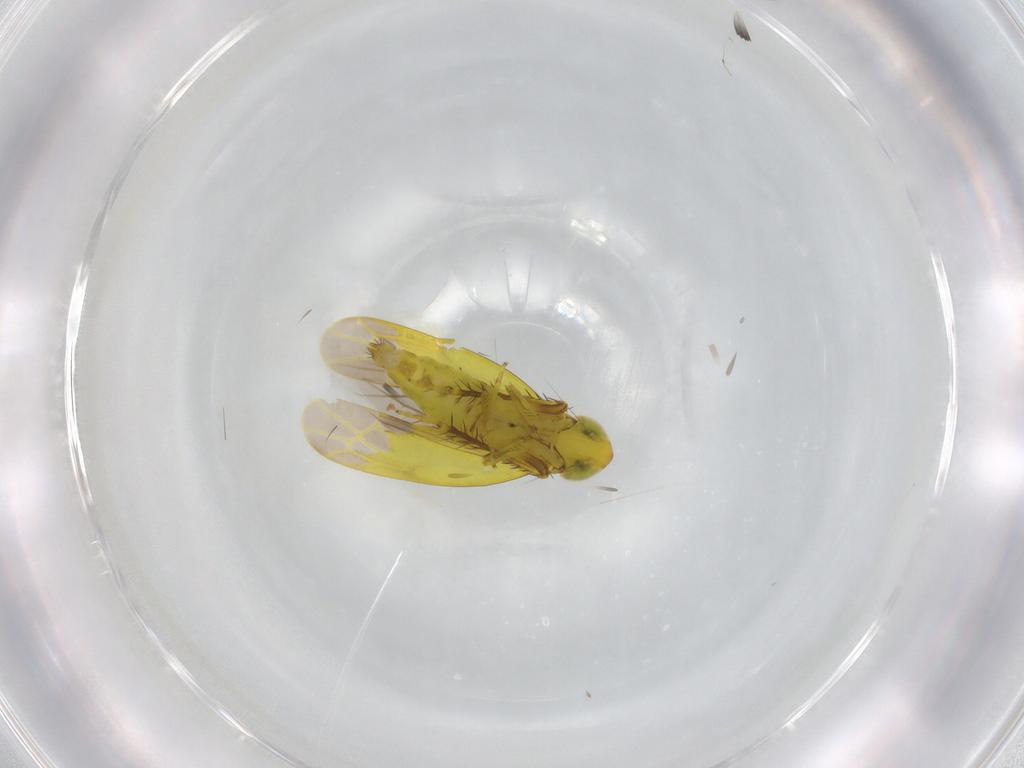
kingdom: Animalia
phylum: Arthropoda
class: Insecta
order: Hemiptera
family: Cicadellidae
